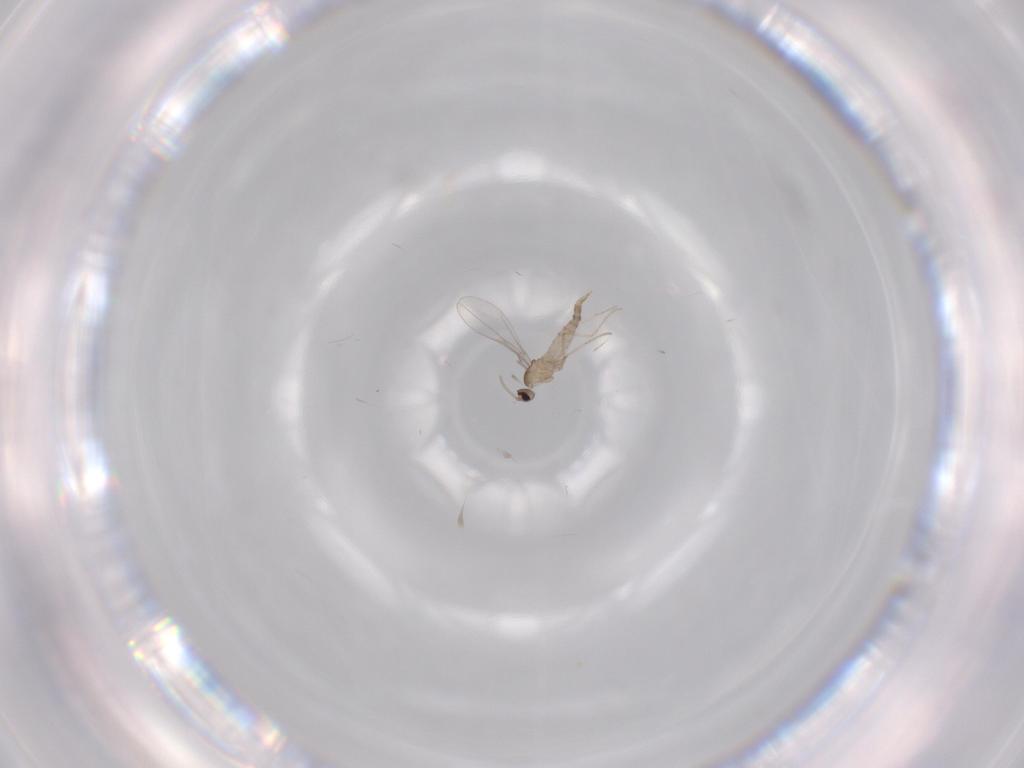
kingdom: Animalia
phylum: Arthropoda
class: Insecta
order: Diptera
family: Cecidomyiidae
